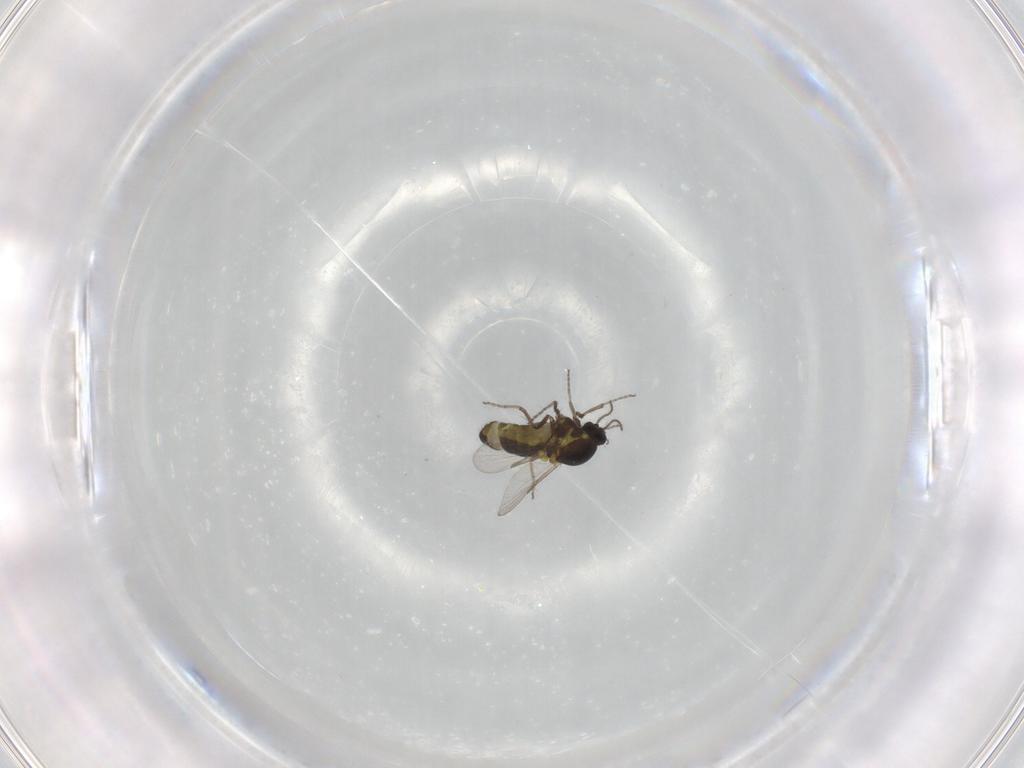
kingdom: Animalia
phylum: Arthropoda
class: Insecta
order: Diptera
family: Ceratopogonidae
